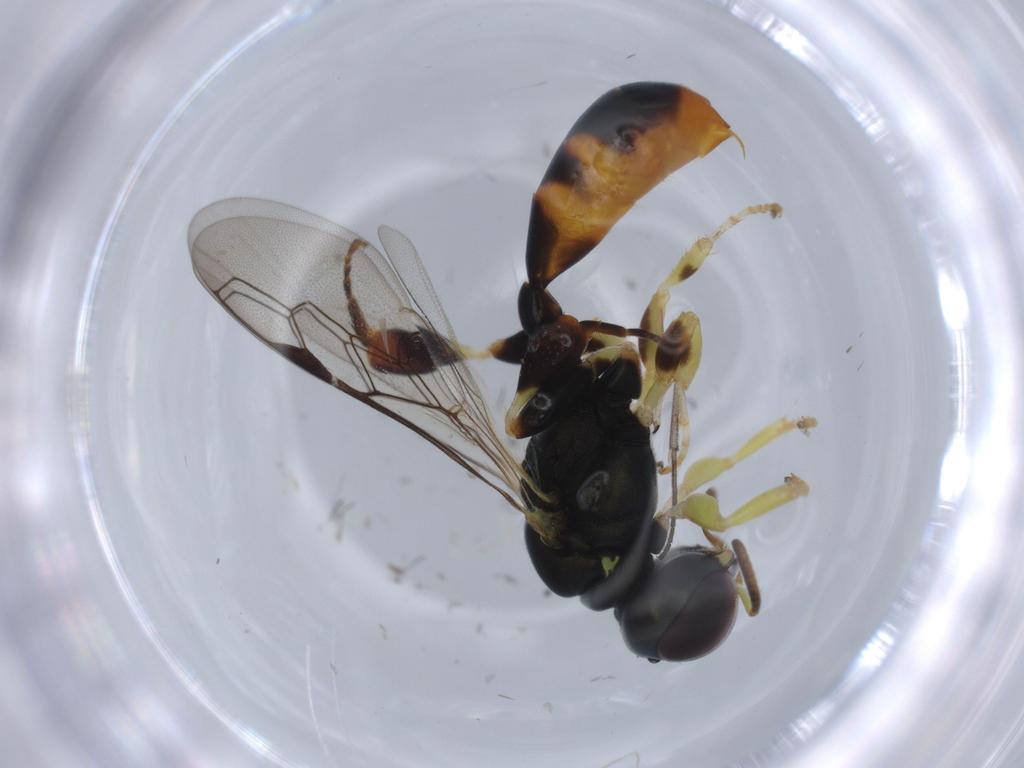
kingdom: Animalia
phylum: Arthropoda
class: Insecta
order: Hymenoptera
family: Crabronidae
